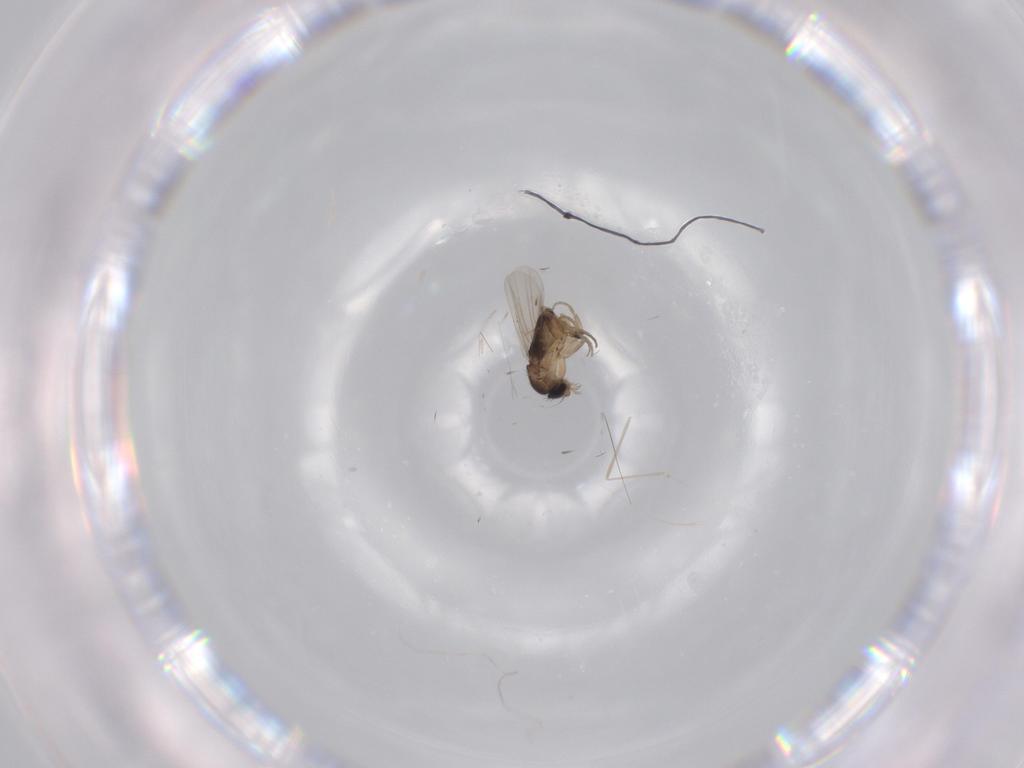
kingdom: Animalia
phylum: Arthropoda
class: Insecta
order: Diptera
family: Phoridae
